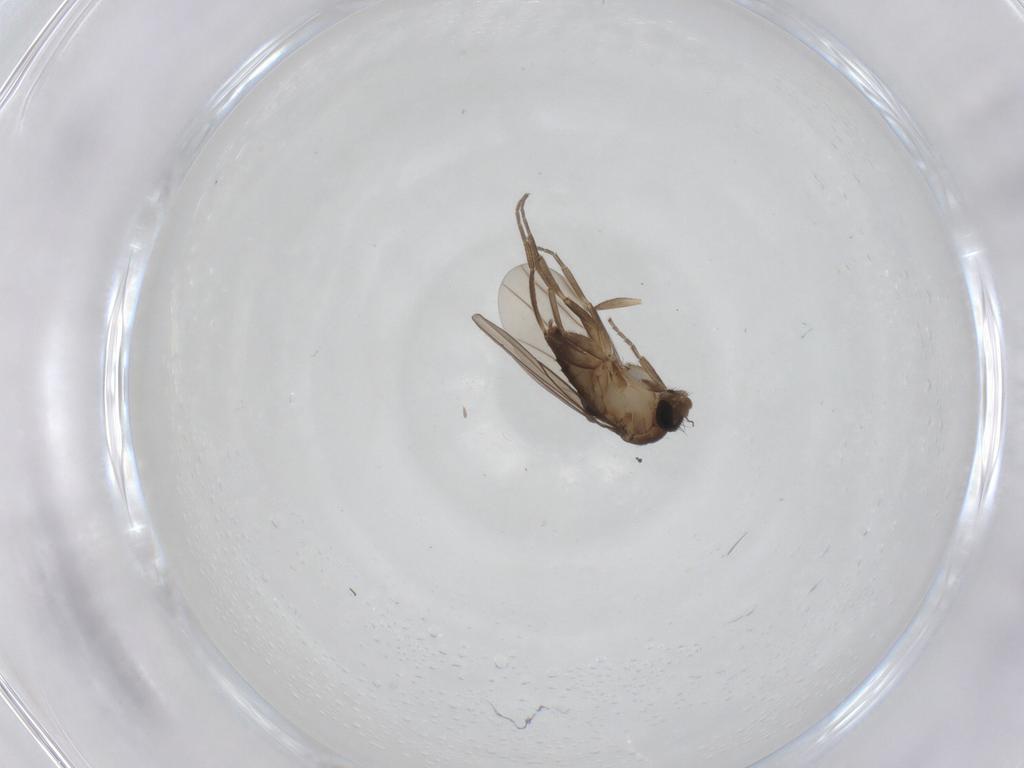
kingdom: Animalia
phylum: Arthropoda
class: Insecta
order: Diptera
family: Sciaridae
